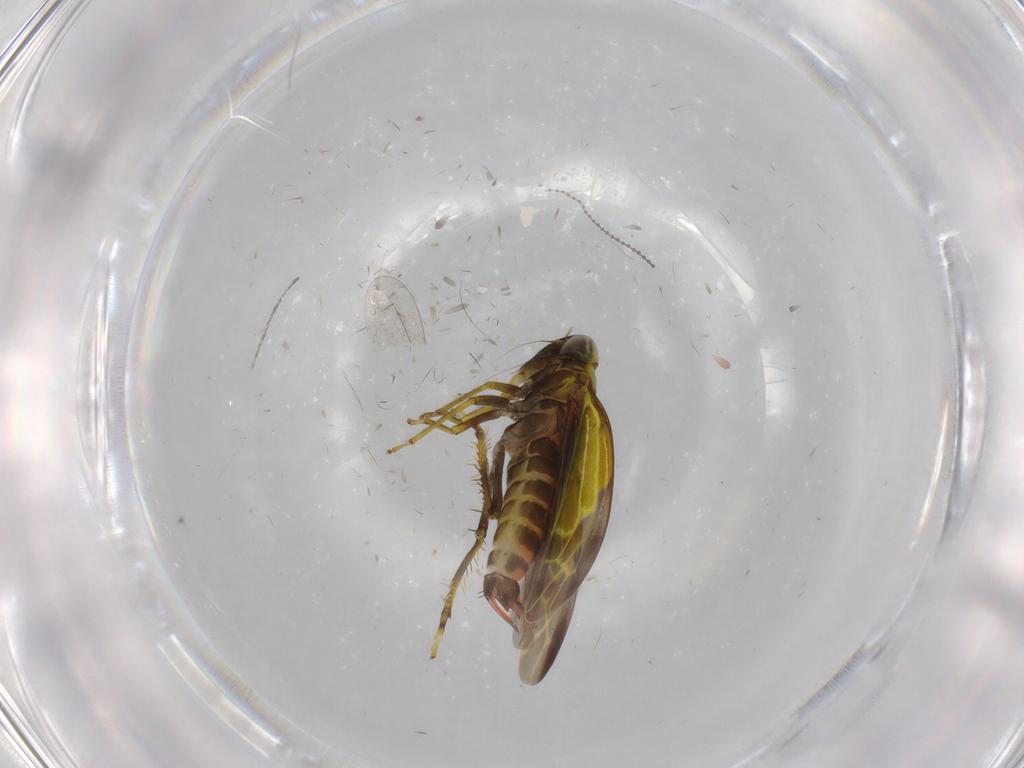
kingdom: Animalia
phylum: Arthropoda
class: Insecta
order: Hemiptera
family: Cicadellidae
